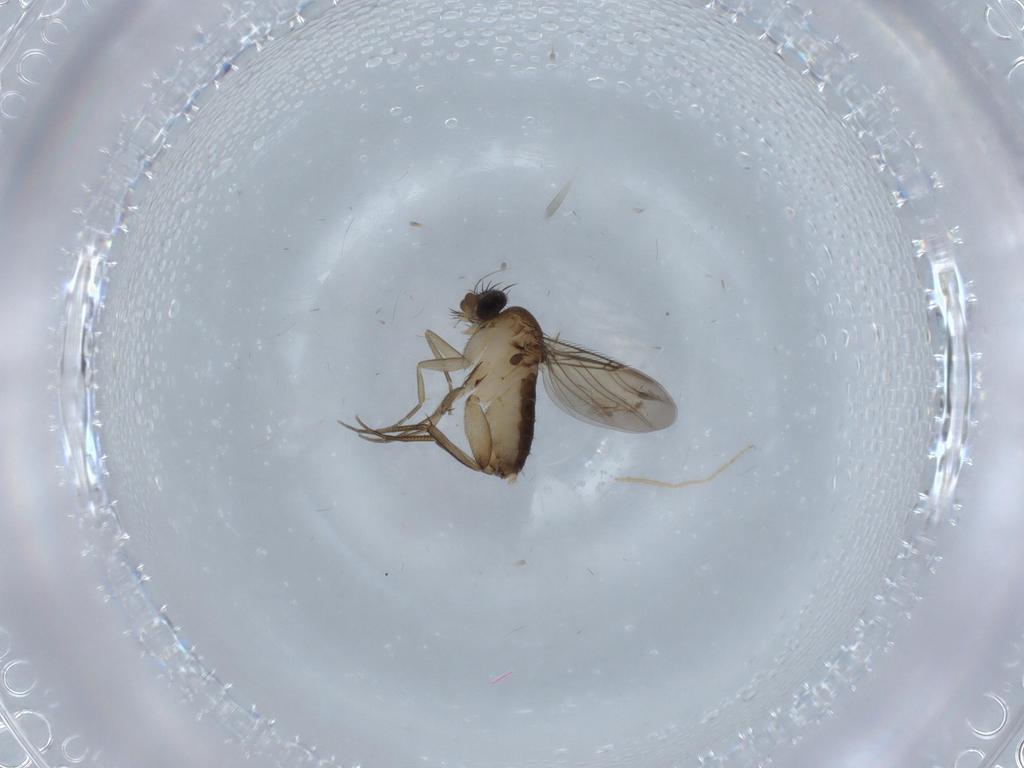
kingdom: Animalia
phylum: Arthropoda
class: Insecta
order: Diptera
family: Phoridae
